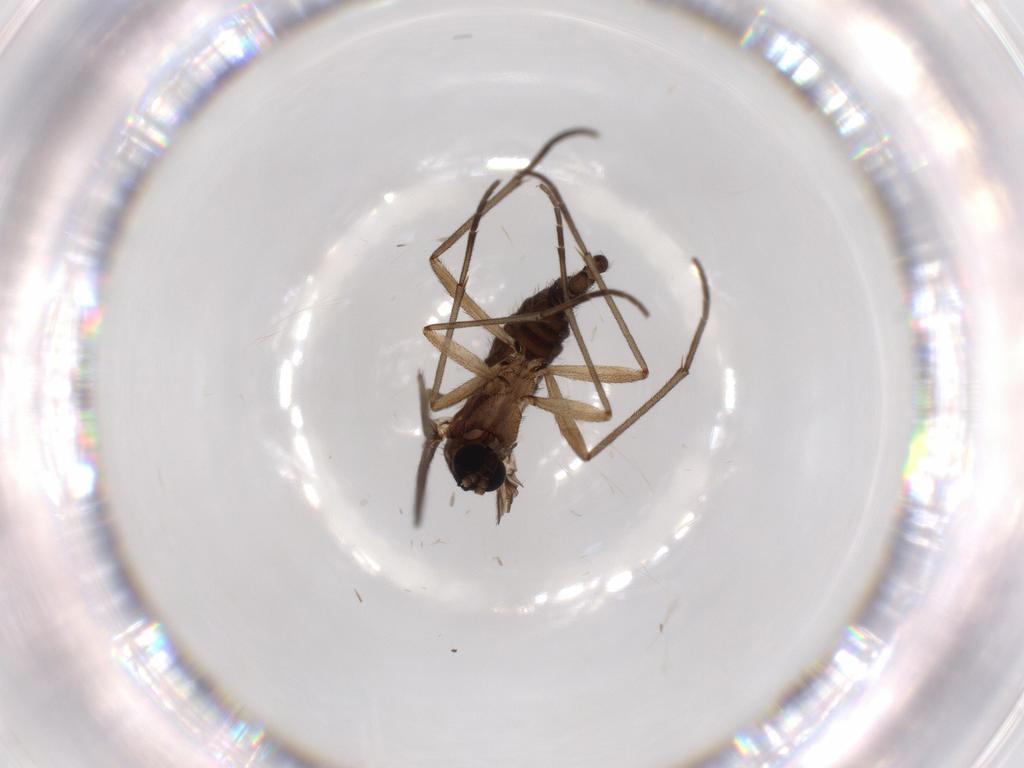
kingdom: Animalia
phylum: Arthropoda
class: Insecta
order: Diptera
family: Sciaridae
